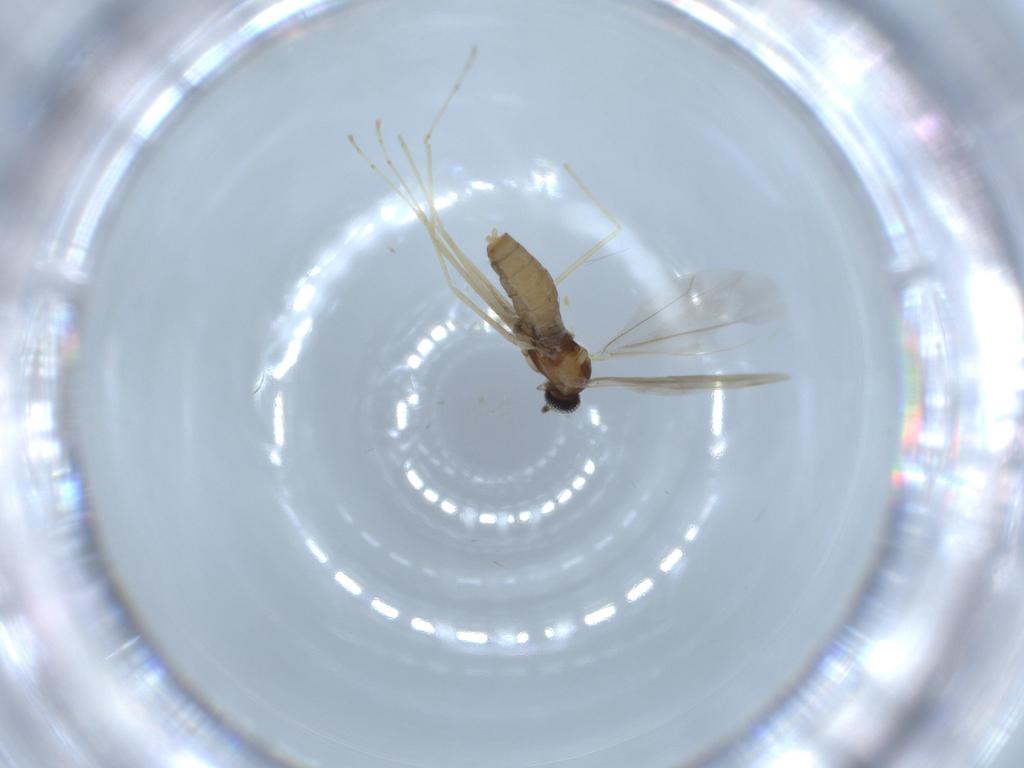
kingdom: Animalia
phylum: Arthropoda
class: Insecta
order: Diptera
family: Cecidomyiidae
